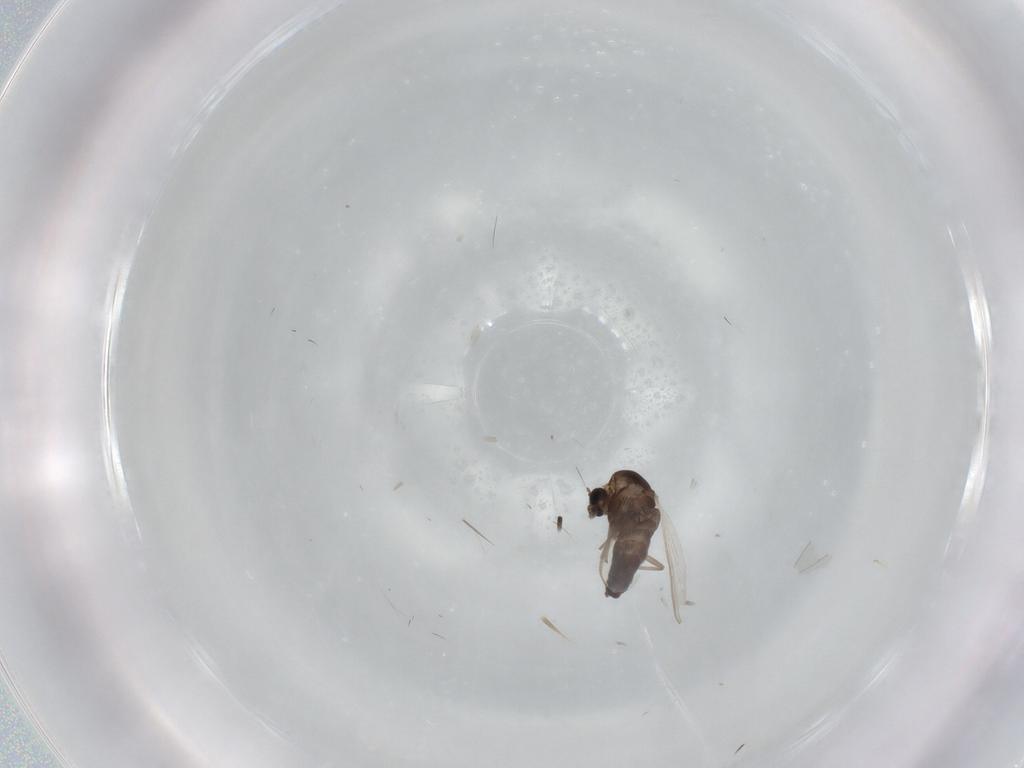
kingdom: Animalia
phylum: Arthropoda
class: Insecta
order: Diptera
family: Chironomidae
